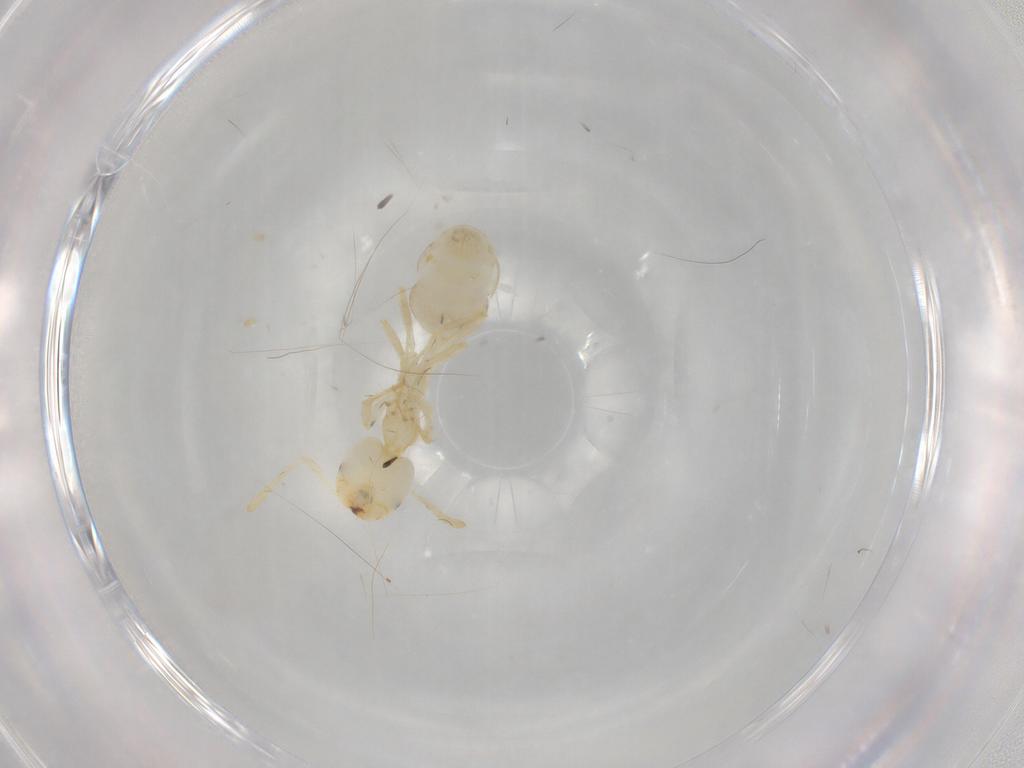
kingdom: Animalia
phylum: Arthropoda
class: Insecta
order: Hymenoptera
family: Formicidae
